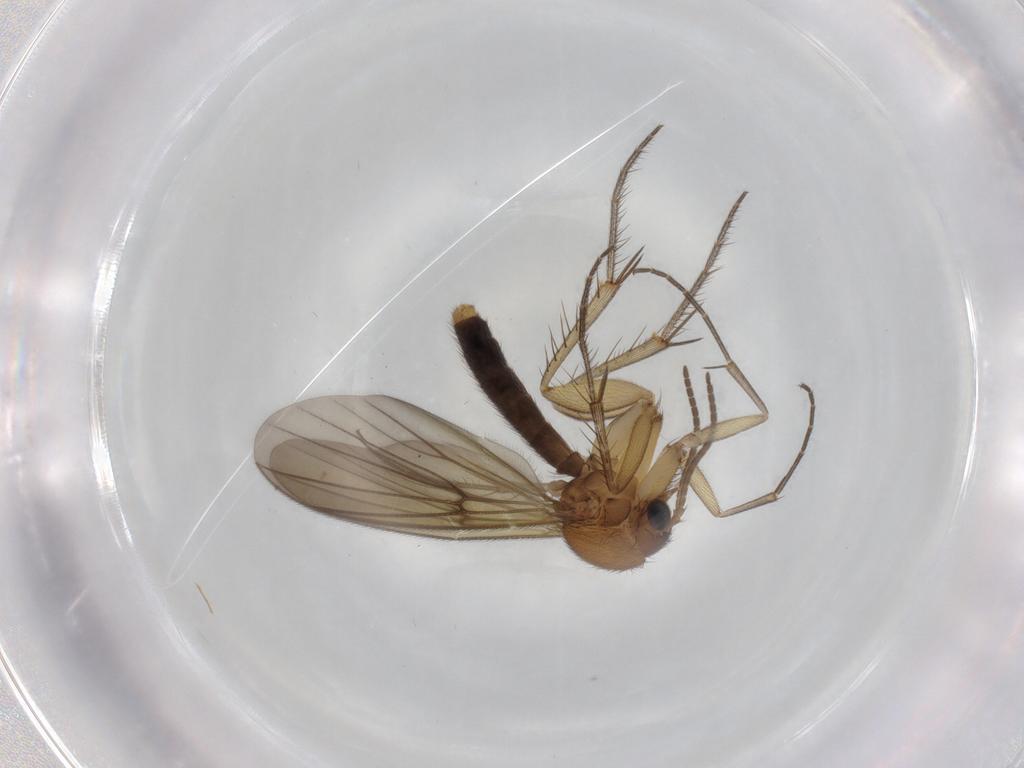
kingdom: Animalia
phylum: Arthropoda
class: Insecta
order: Diptera
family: Mycetophilidae
